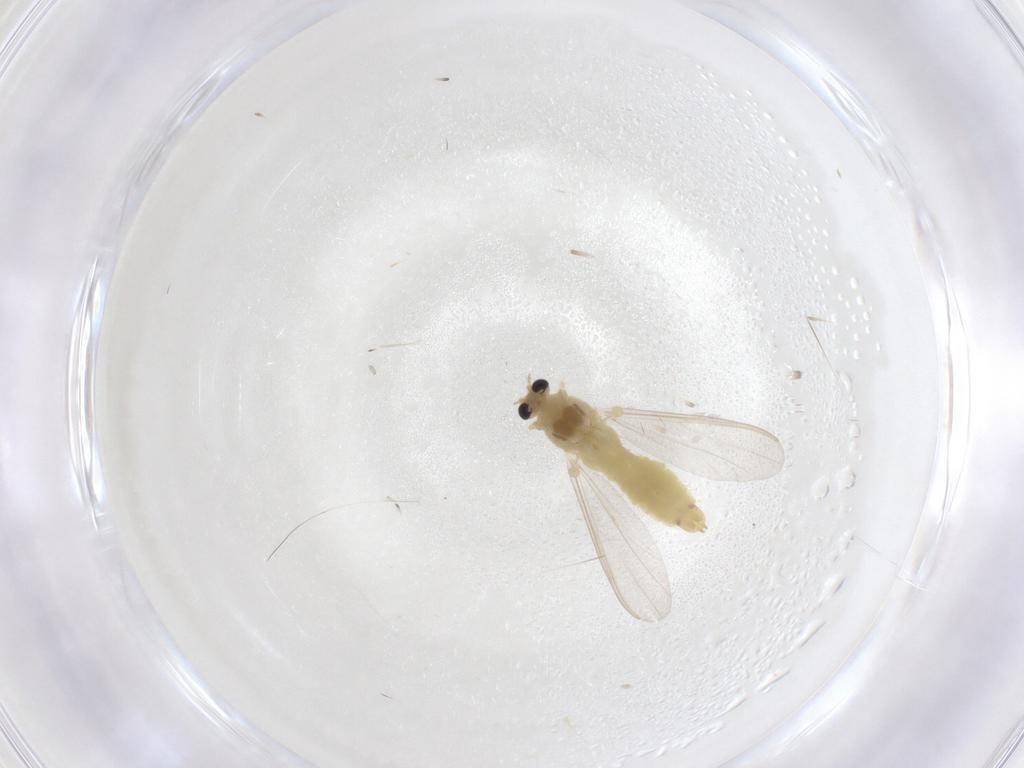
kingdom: Animalia
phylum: Arthropoda
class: Insecta
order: Diptera
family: Chironomidae
